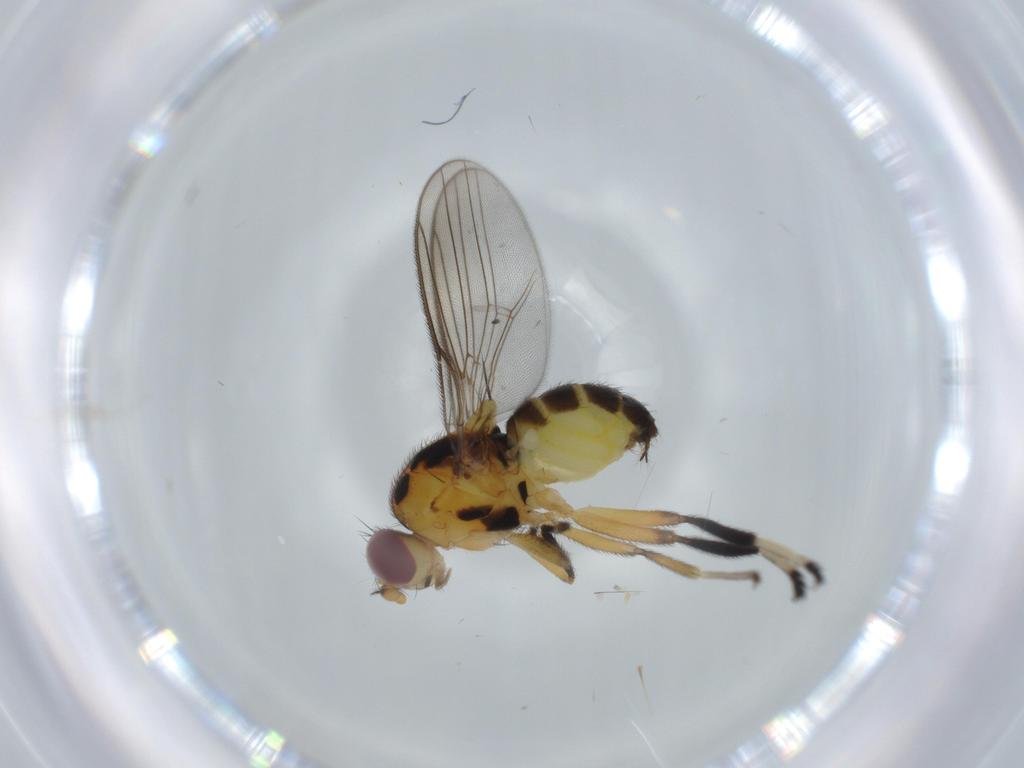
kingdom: Animalia
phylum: Arthropoda
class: Insecta
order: Diptera
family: Chloropidae
